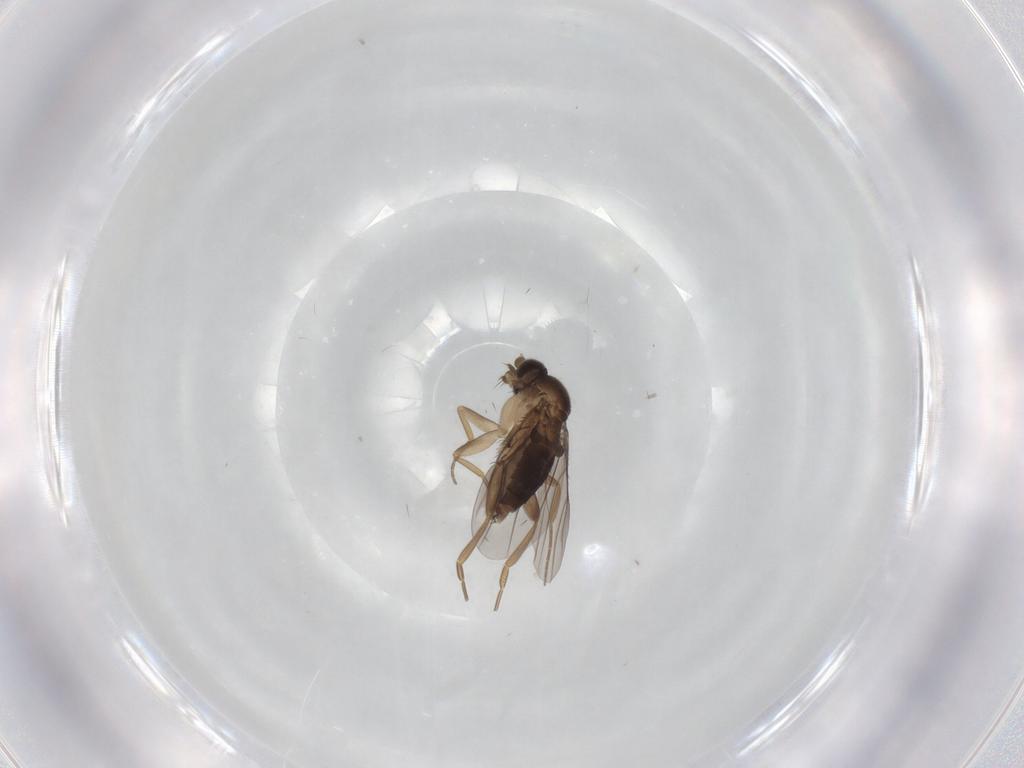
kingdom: Animalia
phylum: Arthropoda
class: Insecta
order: Diptera
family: Phoridae
